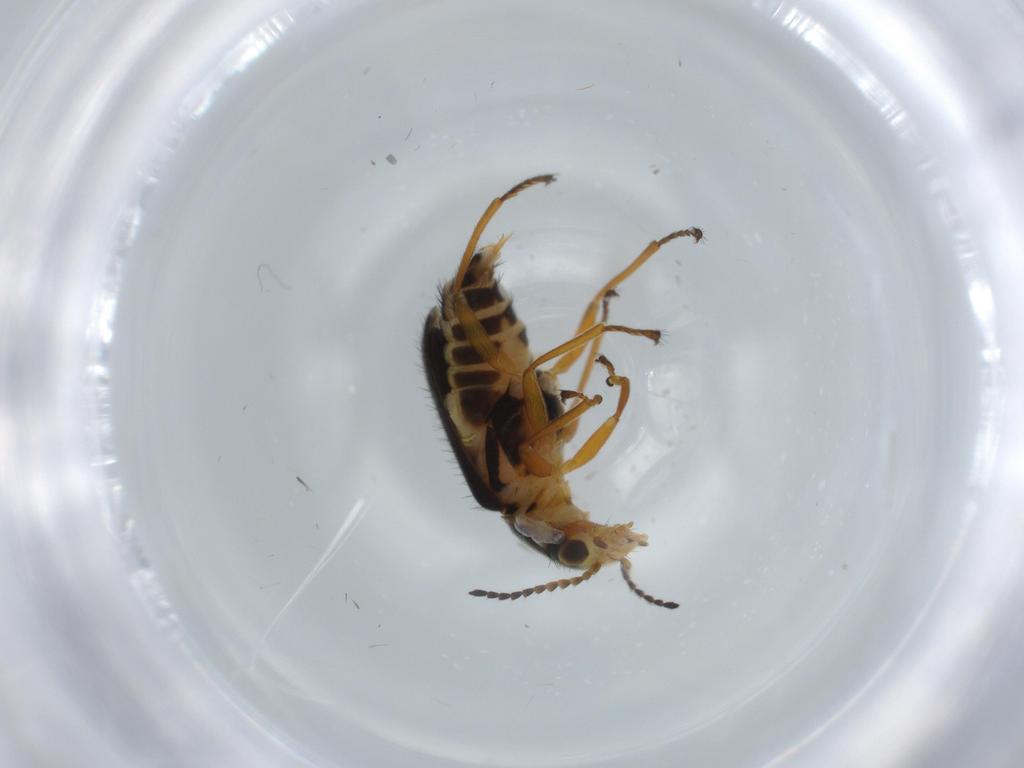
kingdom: Animalia
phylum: Arthropoda
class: Insecta
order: Coleoptera
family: Melyridae
